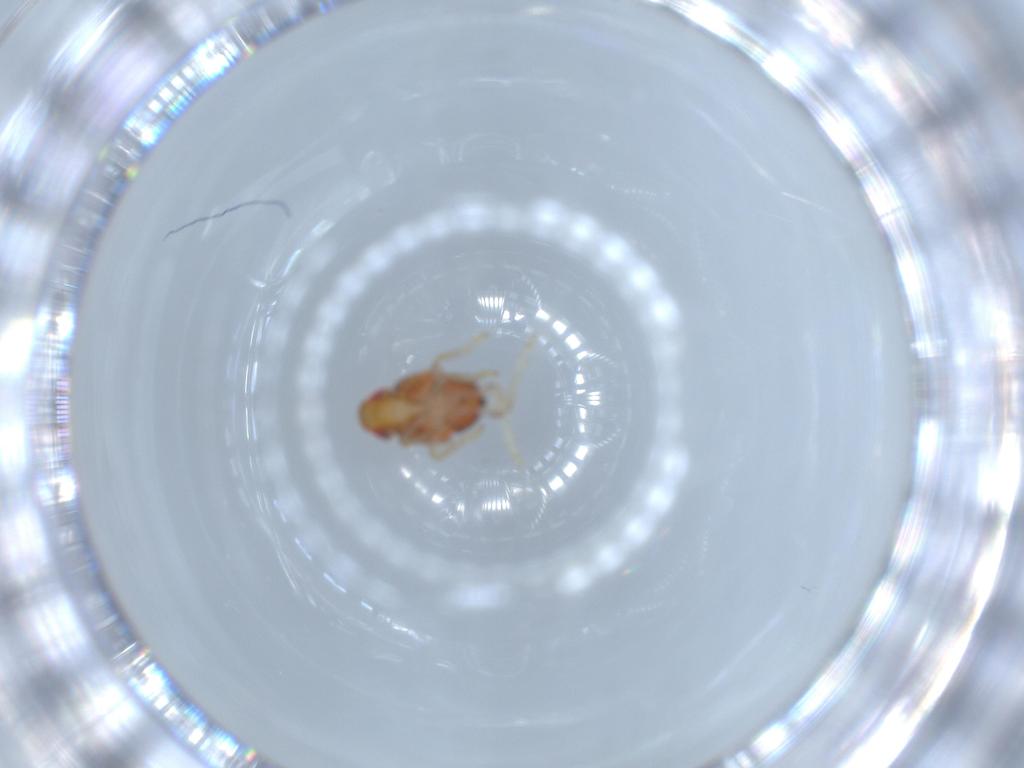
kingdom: Animalia
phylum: Arthropoda
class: Insecta
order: Hemiptera
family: Issidae
